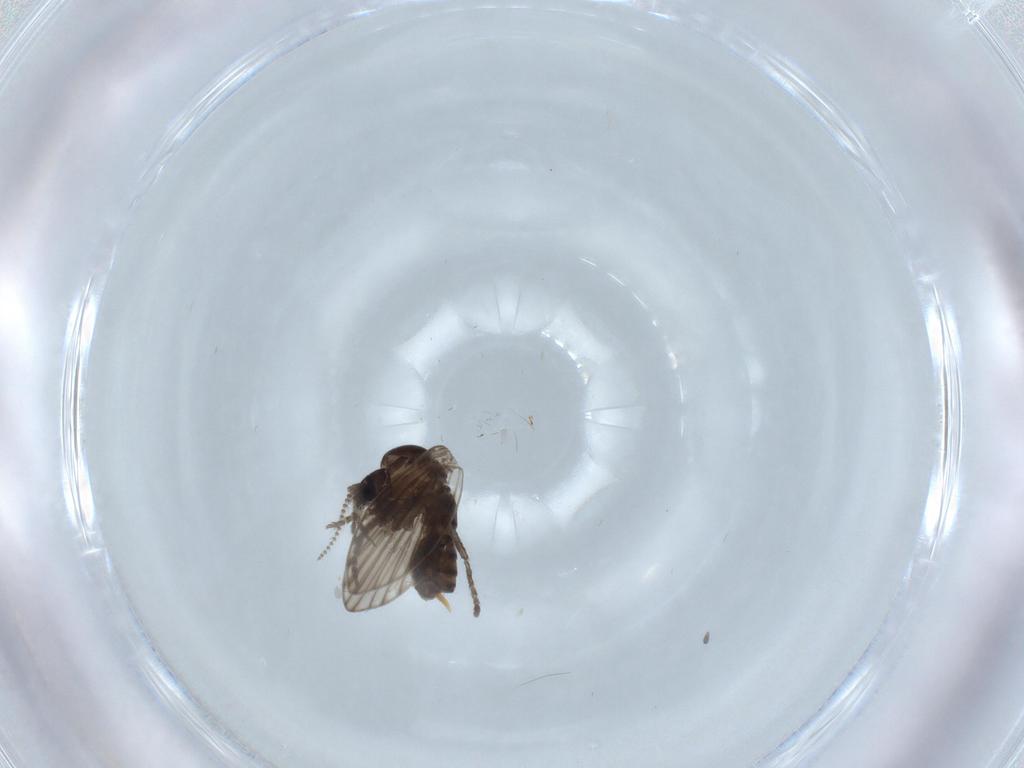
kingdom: Animalia
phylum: Arthropoda
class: Insecta
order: Diptera
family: Psychodidae
